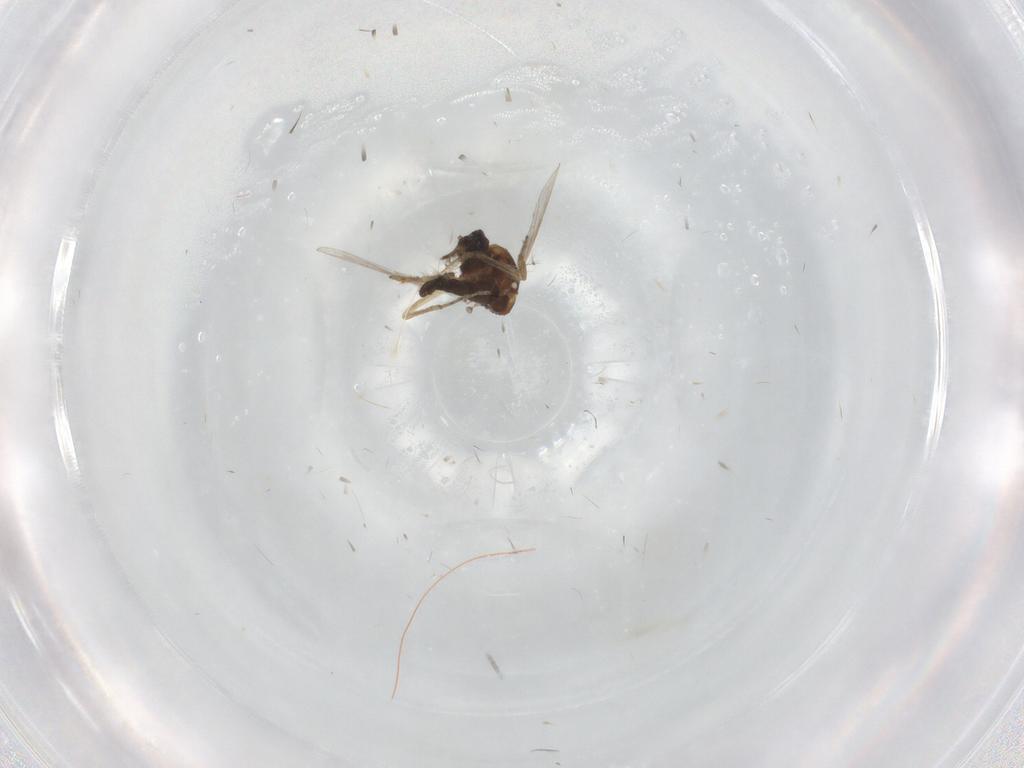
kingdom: Animalia
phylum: Arthropoda
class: Insecta
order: Diptera
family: Ceratopogonidae
